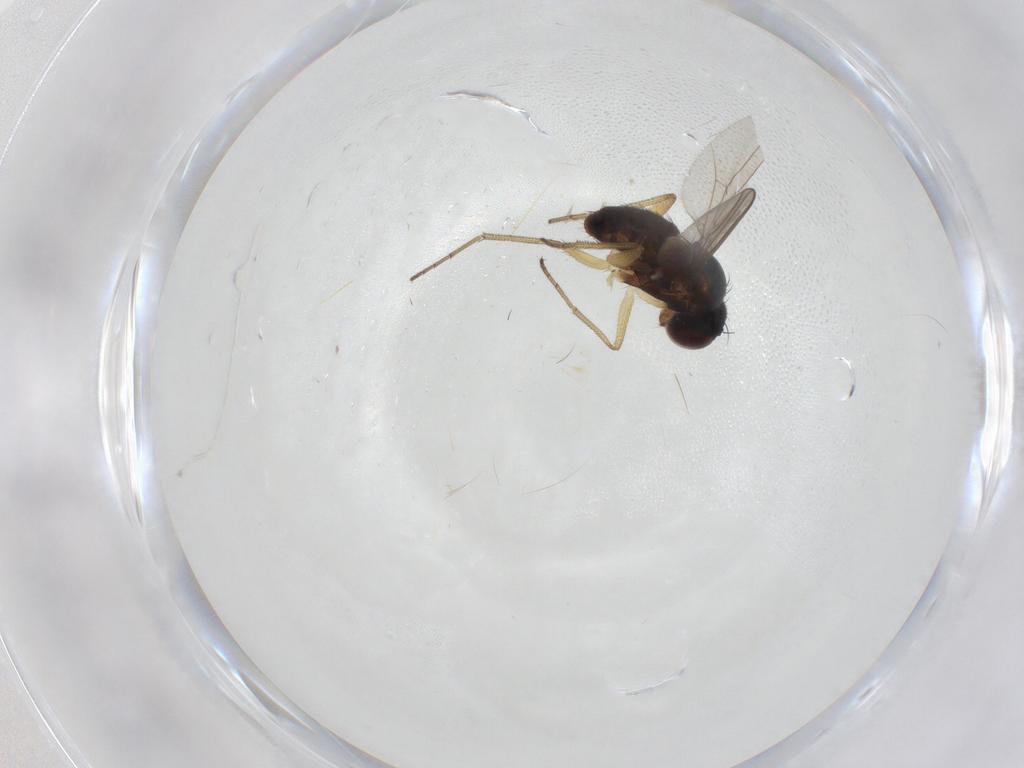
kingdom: Animalia
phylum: Arthropoda
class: Insecta
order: Diptera
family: Dolichopodidae
